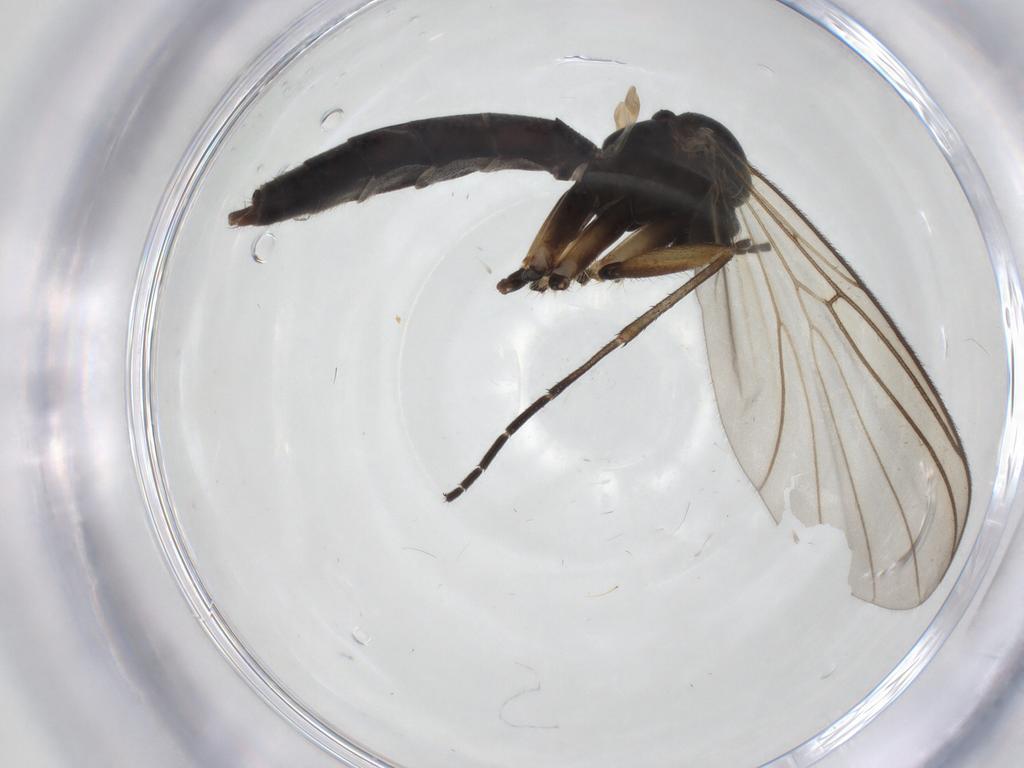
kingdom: Animalia
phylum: Arthropoda
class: Insecta
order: Diptera
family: Mycetophilidae
